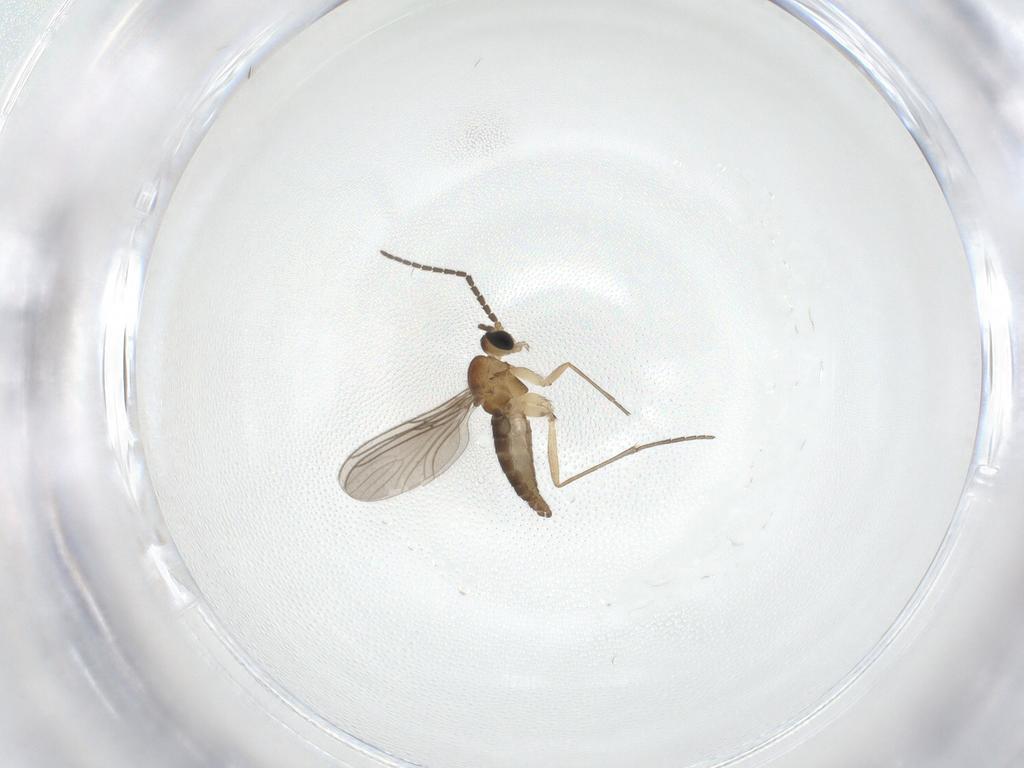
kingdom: Animalia
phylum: Arthropoda
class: Insecta
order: Diptera
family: Sciaridae
